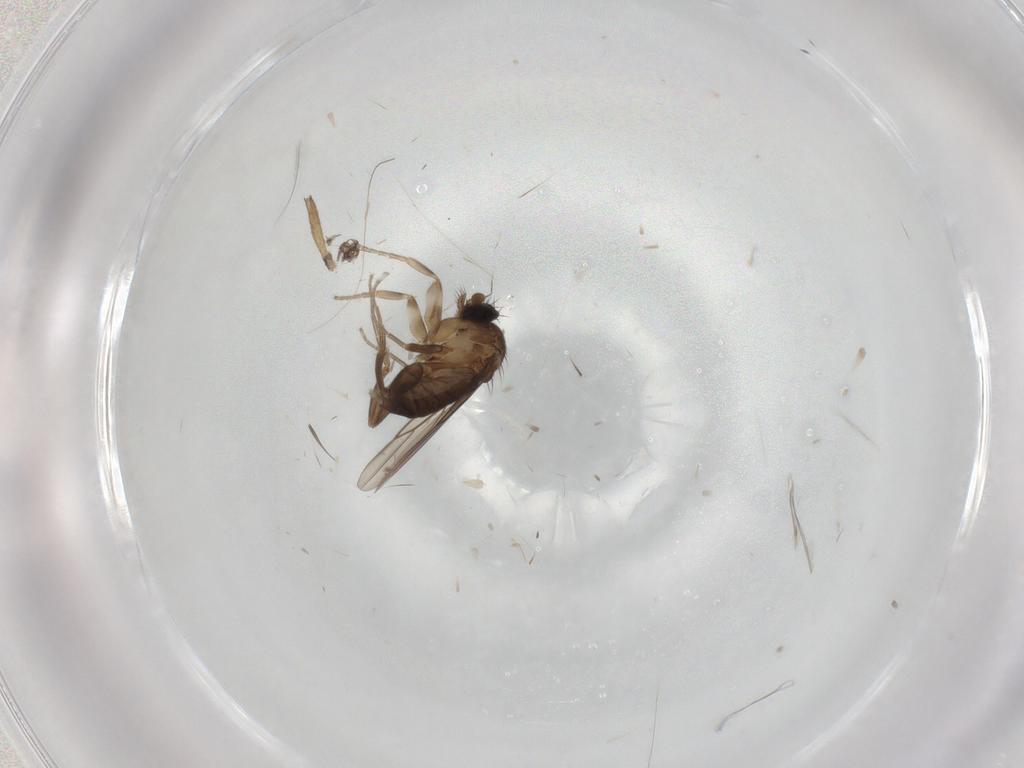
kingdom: Animalia
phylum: Arthropoda
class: Insecta
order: Diptera
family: Phoridae
